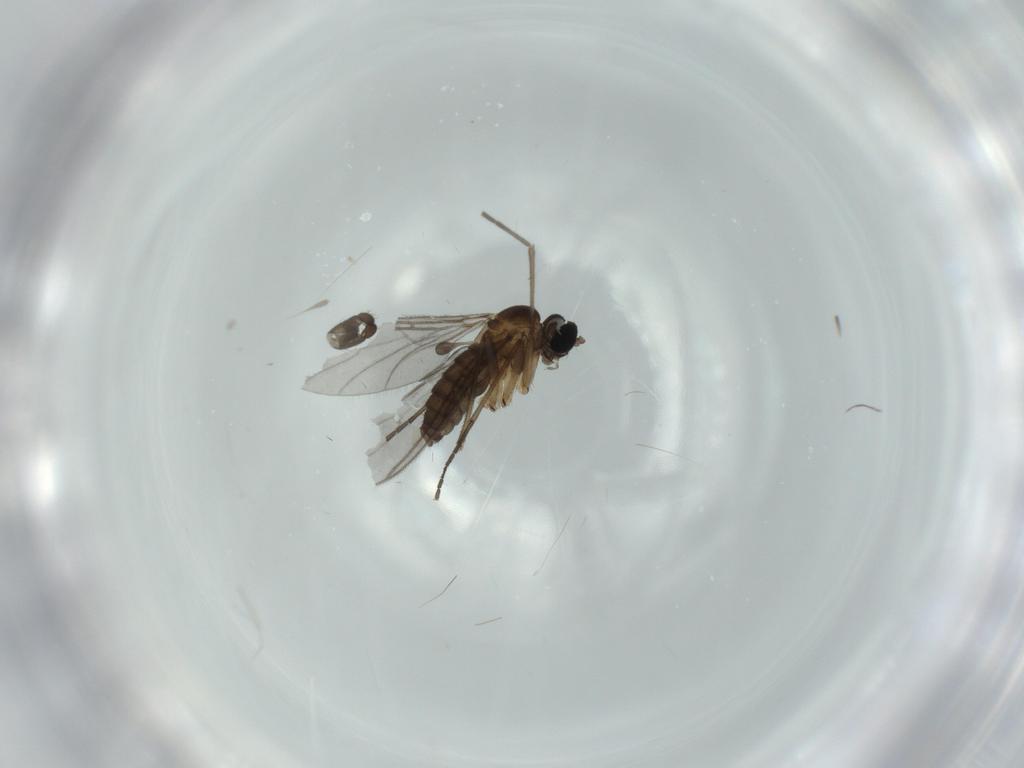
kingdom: Animalia
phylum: Arthropoda
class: Insecta
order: Diptera
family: Sciaridae
